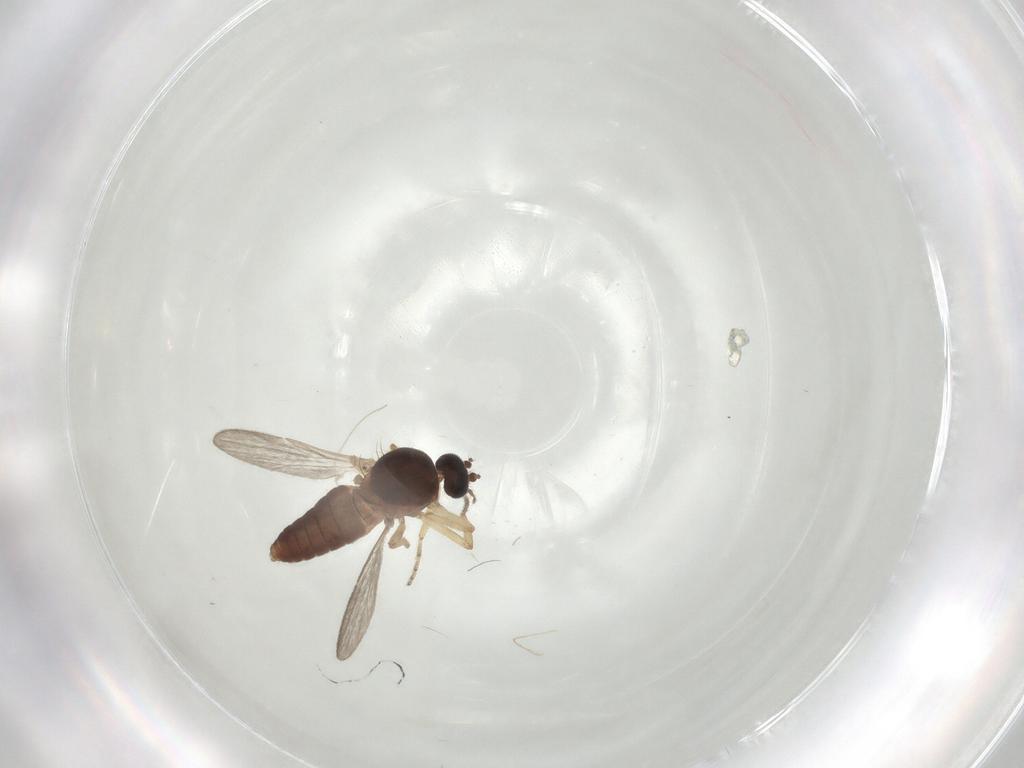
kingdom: Animalia
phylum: Arthropoda
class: Insecta
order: Diptera
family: Ceratopogonidae
